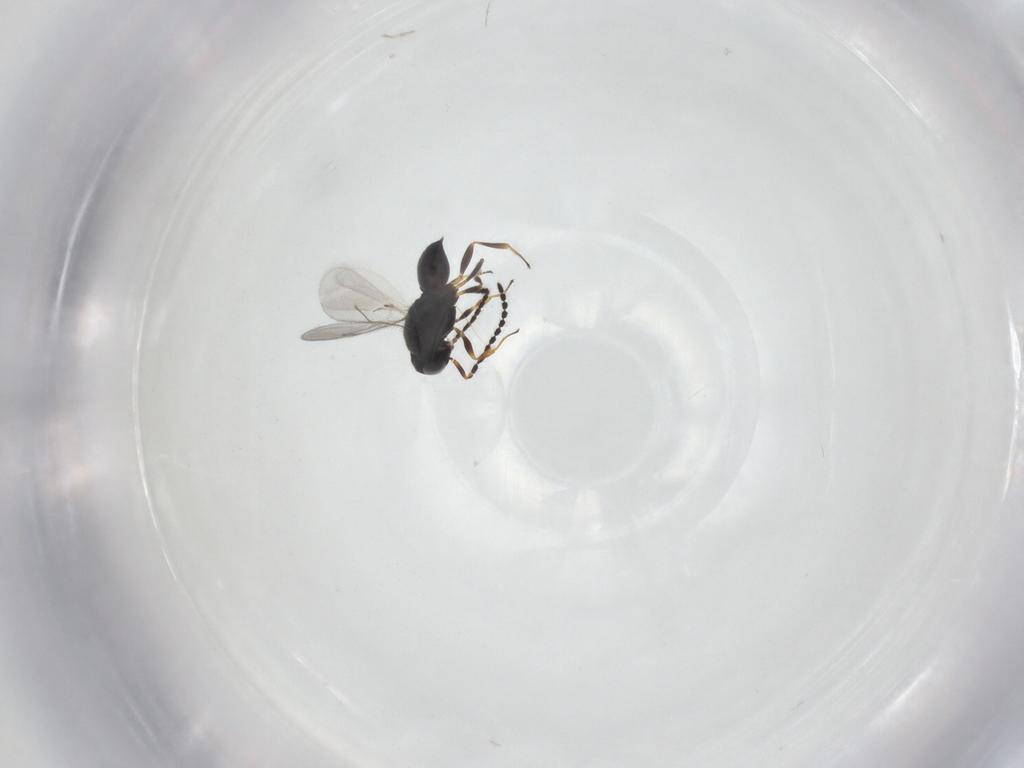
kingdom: Animalia
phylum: Arthropoda
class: Insecta
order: Hymenoptera
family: Scelionidae
